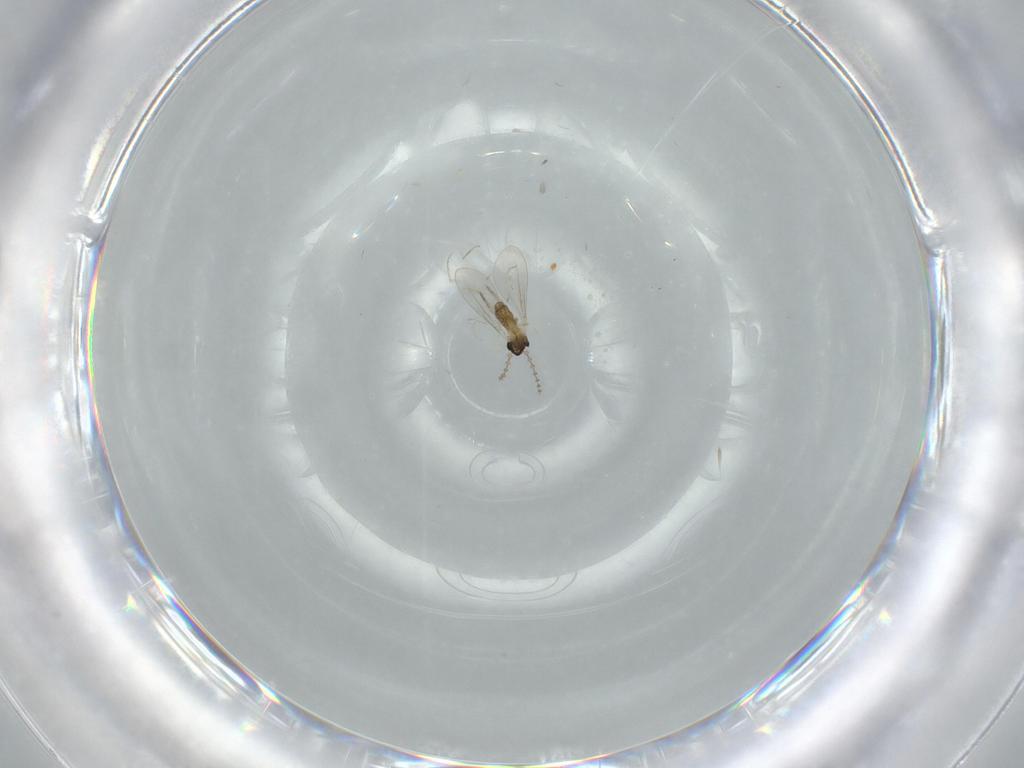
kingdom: Animalia
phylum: Arthropoda
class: Insecta
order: Diptera
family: Cecidomyiidae
